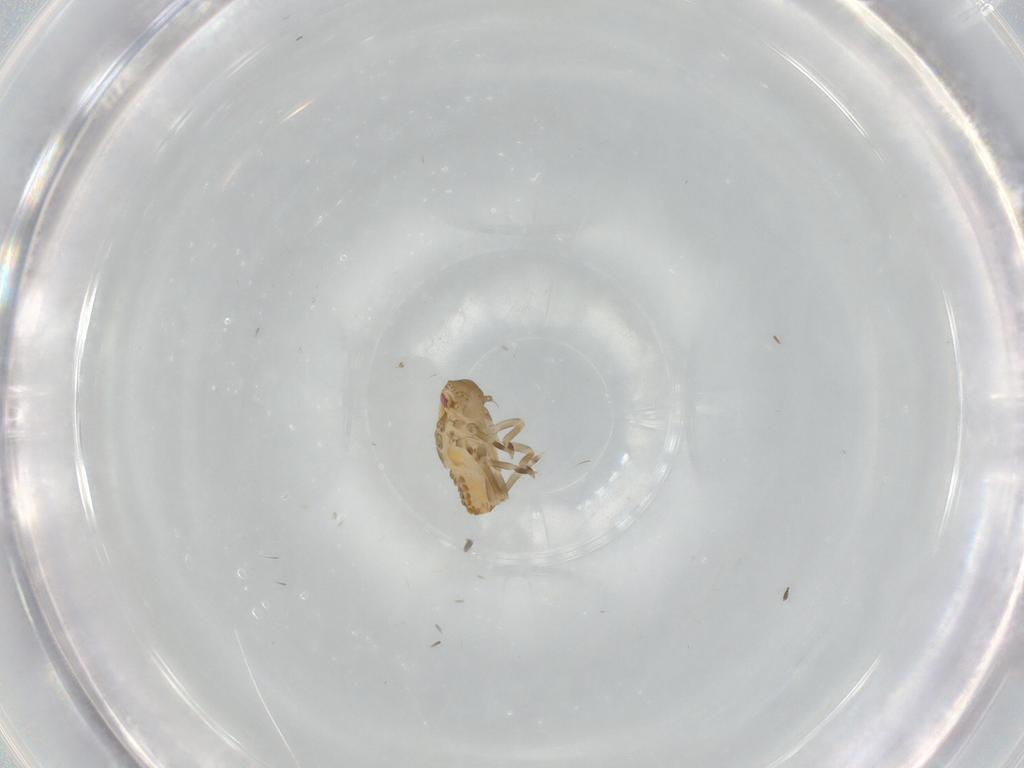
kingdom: Animalia
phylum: Arthropoda
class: Insecta
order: Hemiptera
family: Flatidae
